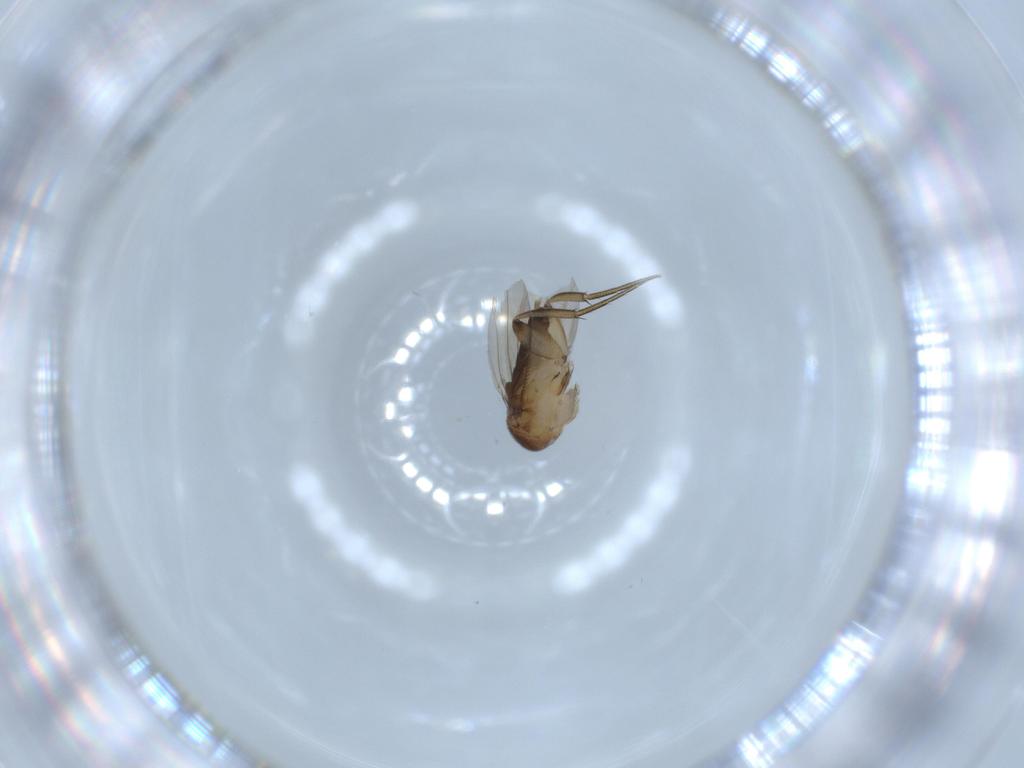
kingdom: Animalia
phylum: Arthropoda
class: Insecta
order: Diptera
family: Phoridae
